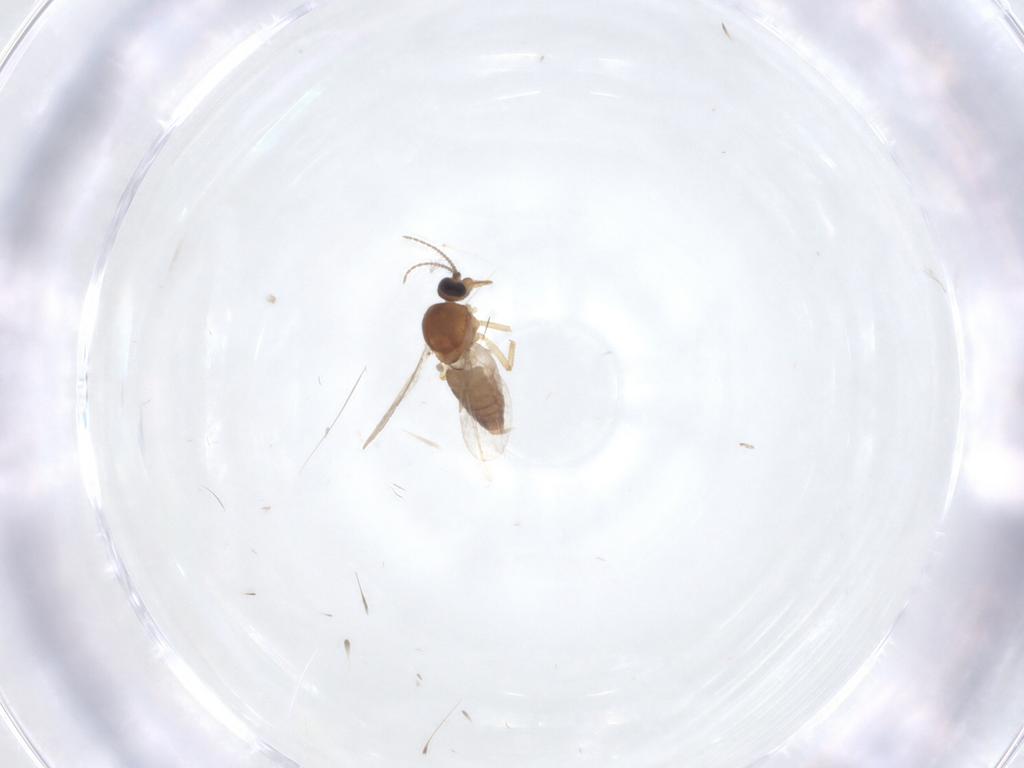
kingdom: Animalia
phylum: Arthropoda
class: Insecta
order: Diptera
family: Ceratopogonidae
